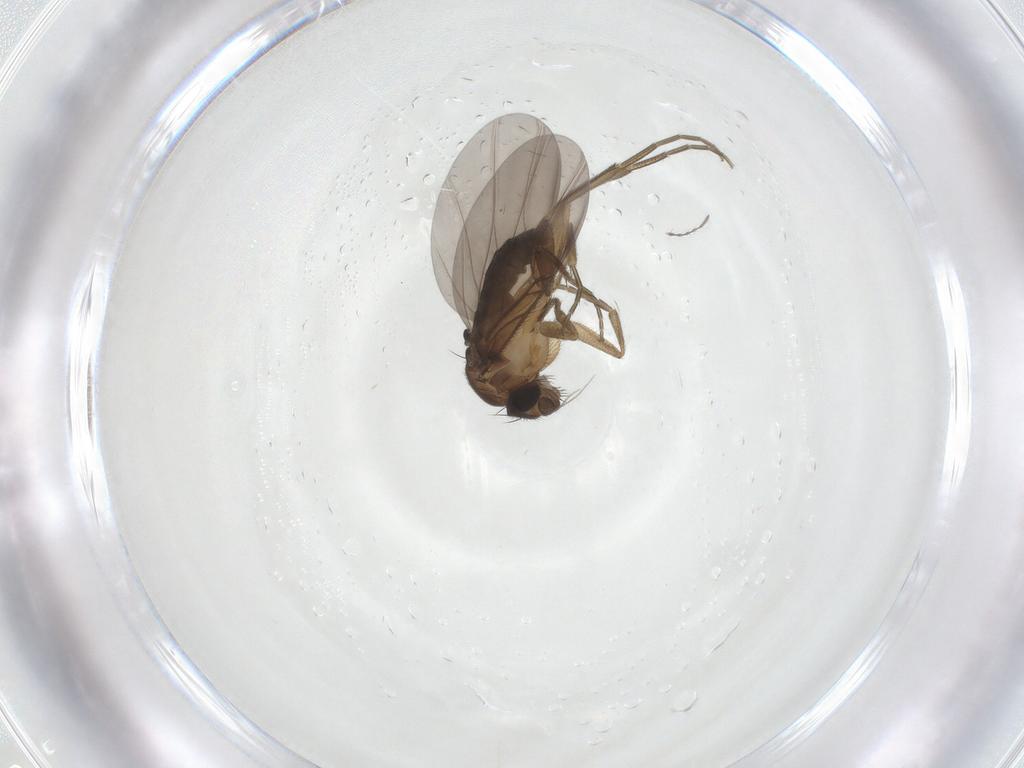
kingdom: Animalia
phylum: Arthropoda
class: Insecta
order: Diptera
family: Phoridae
